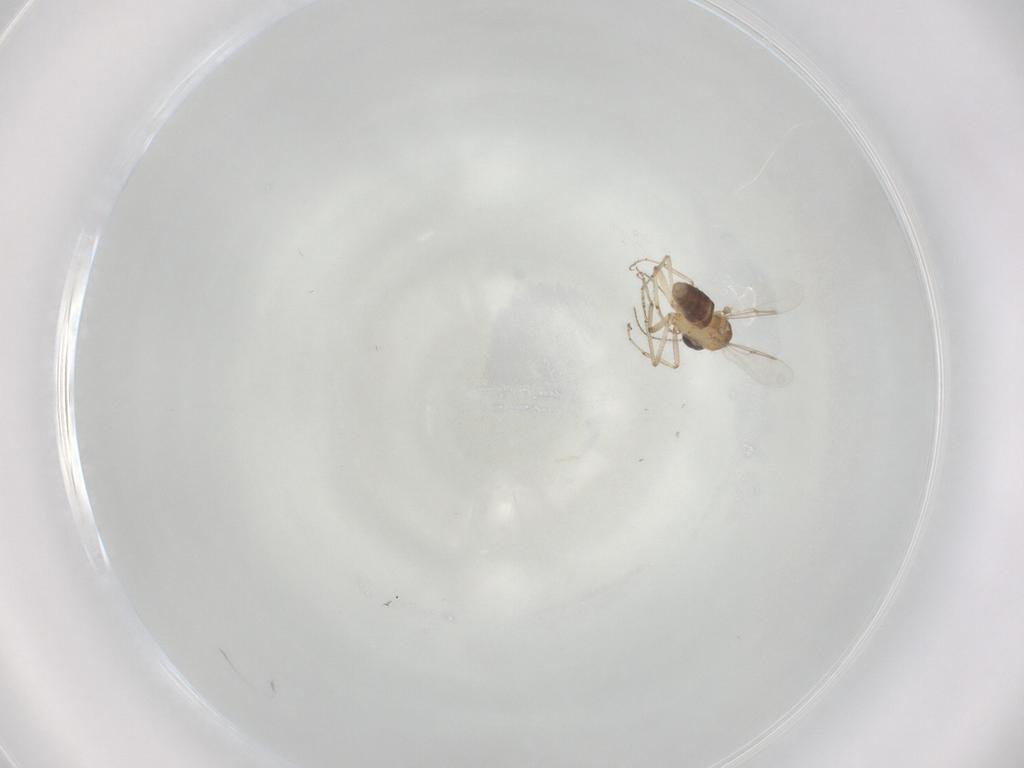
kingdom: Animalia
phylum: Arthropoda
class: Insecta
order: Diptera
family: Ceratopogonidae
